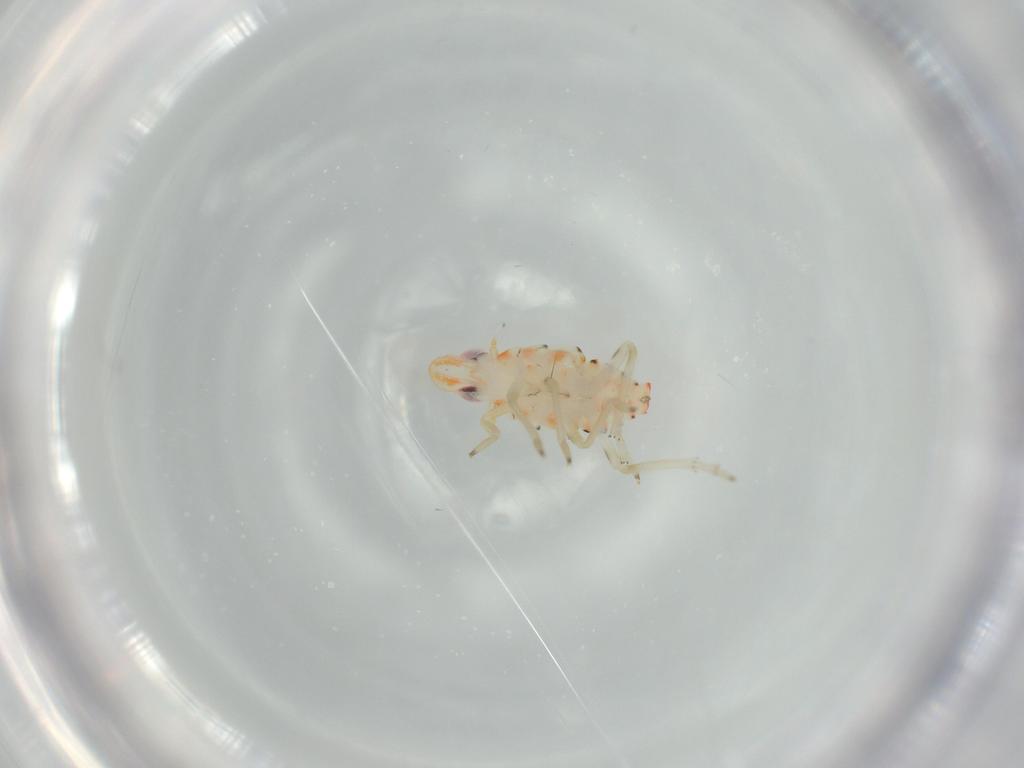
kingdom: Animalia
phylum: Arthropoda
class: Insecta
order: Hemiptera
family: Tropiduchidae
